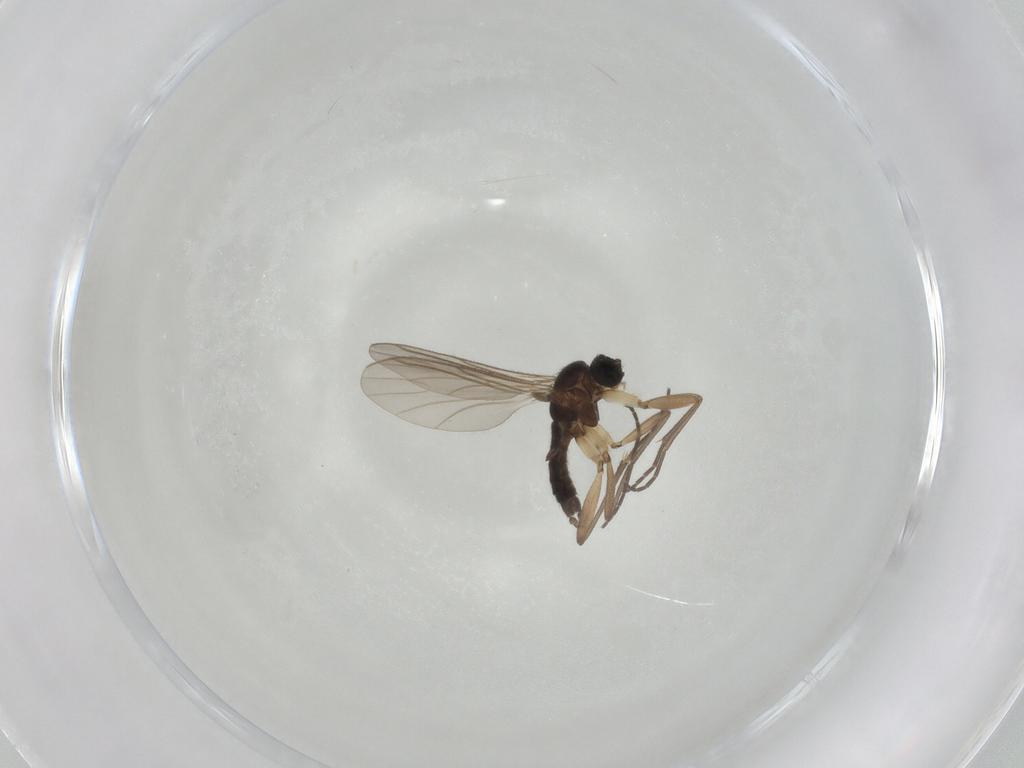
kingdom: Animalia
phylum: Arthropoda
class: Insecta
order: Diptera
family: Sciaridae
